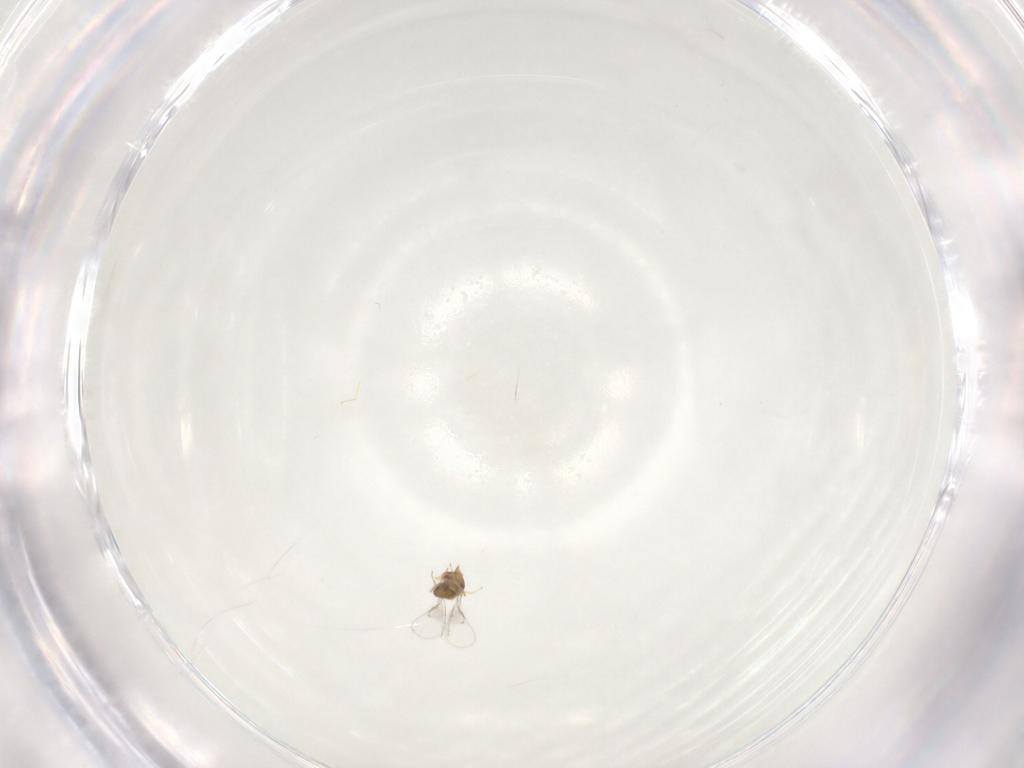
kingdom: Animalia
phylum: Arthropoda
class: Insecta
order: Hymenoptera
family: Trichogrammatidae
